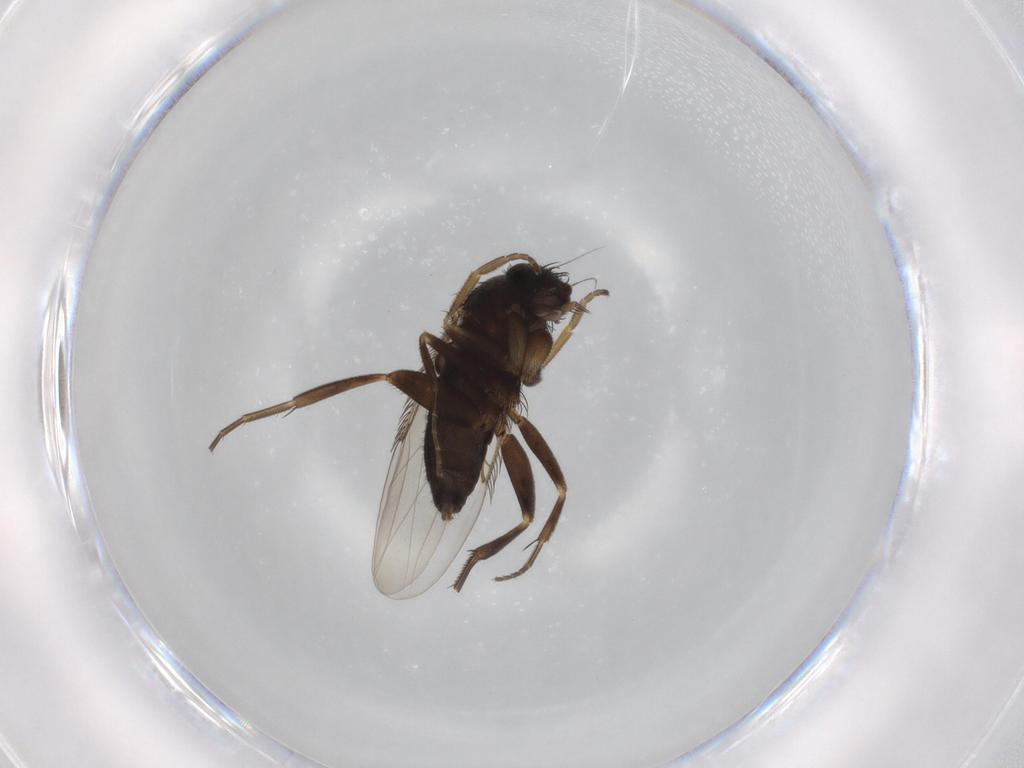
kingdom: Animalia
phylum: Arthropoda
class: Insecta
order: Diptera
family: Phoridae
